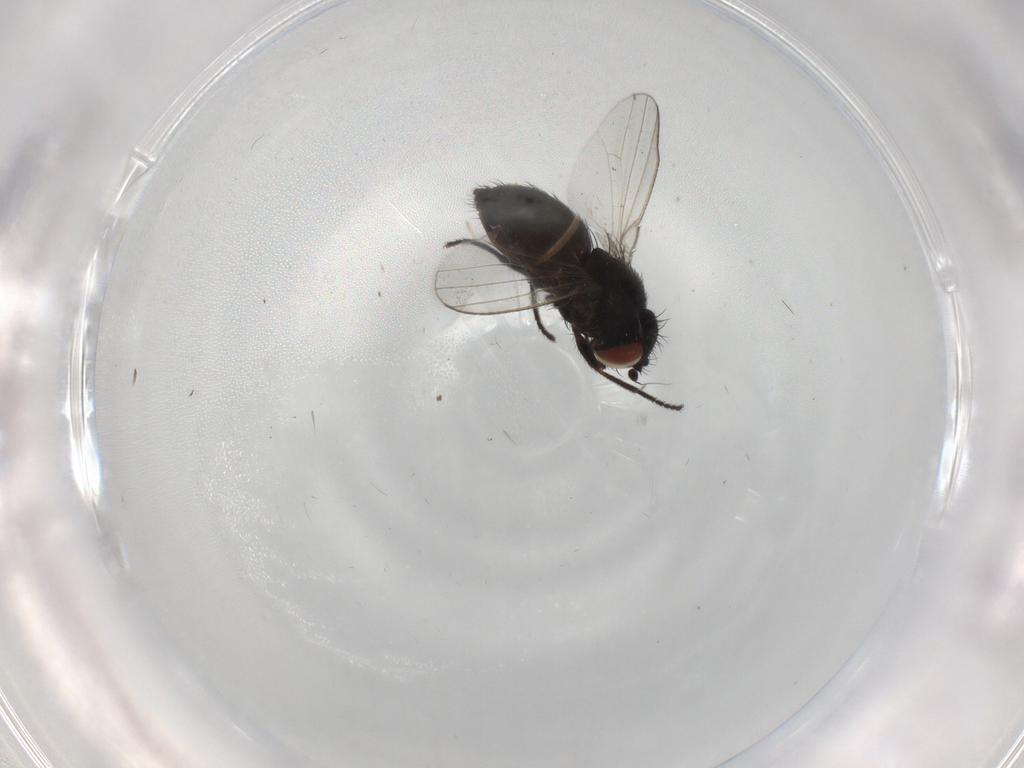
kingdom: Animalia
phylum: Arthropoda
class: Insecta
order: Diptera
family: Milichiidae
